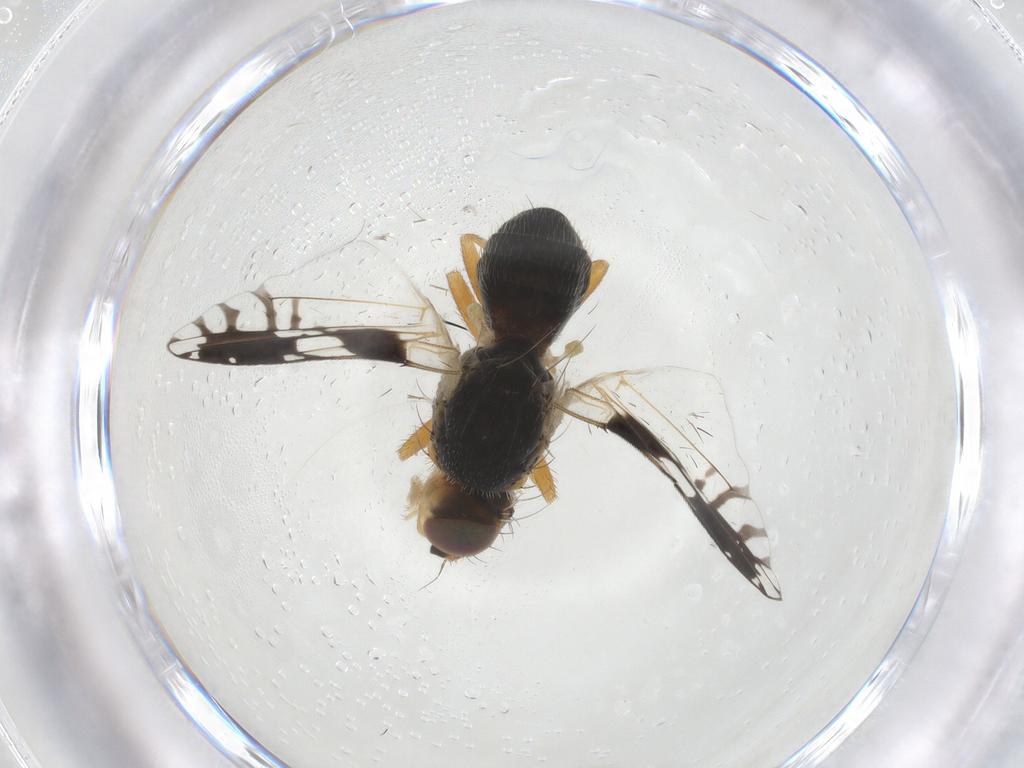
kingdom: Animalia
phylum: Arthropoda
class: Insecta
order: Diptera
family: Tephritidae
